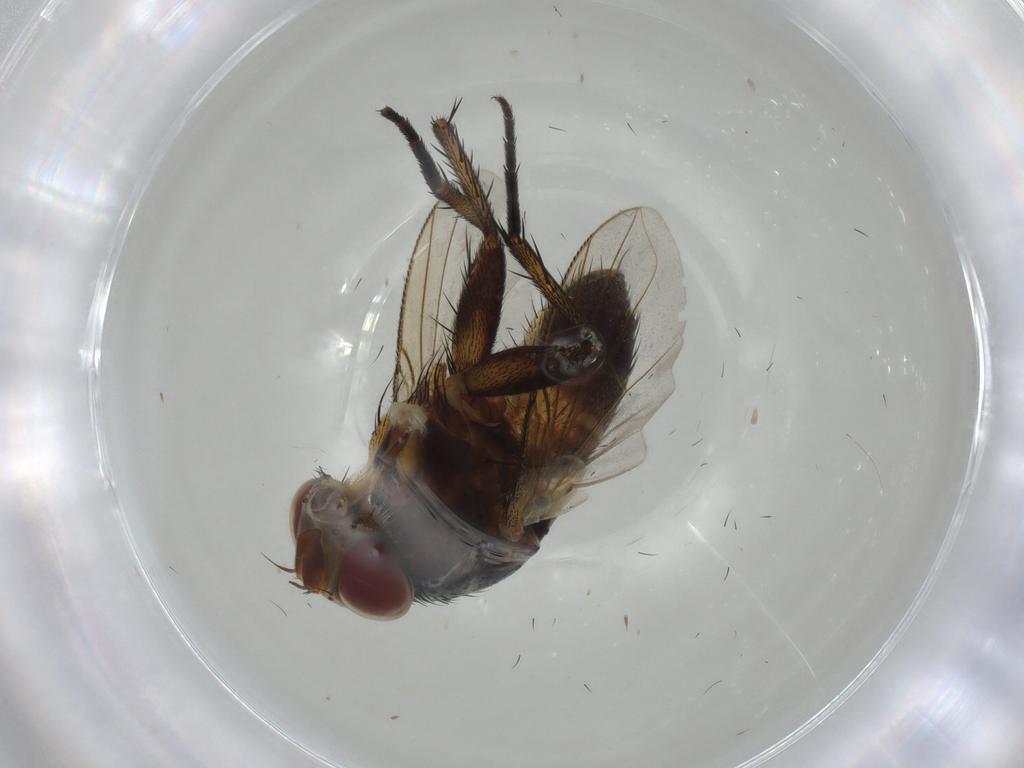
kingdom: Animalia
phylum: Arthropoda
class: Insecta
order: Diptera
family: Tachinidae
